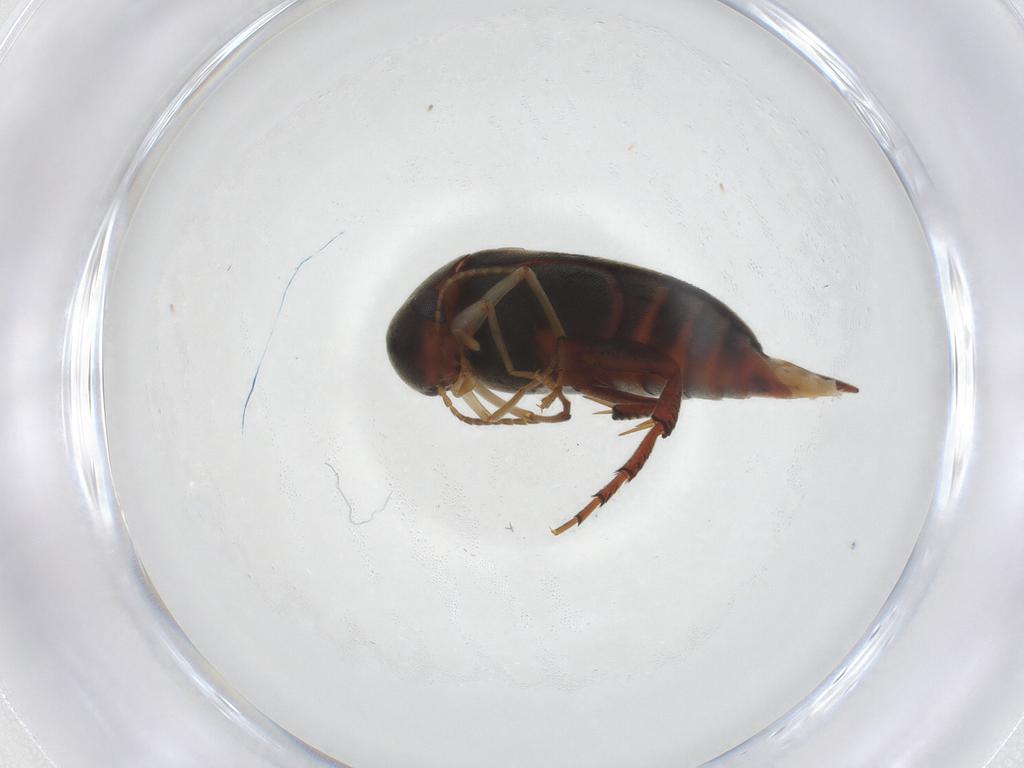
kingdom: Animalia
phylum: Arthropoda
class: Insecta
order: Coleoptera
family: Mordellidae
